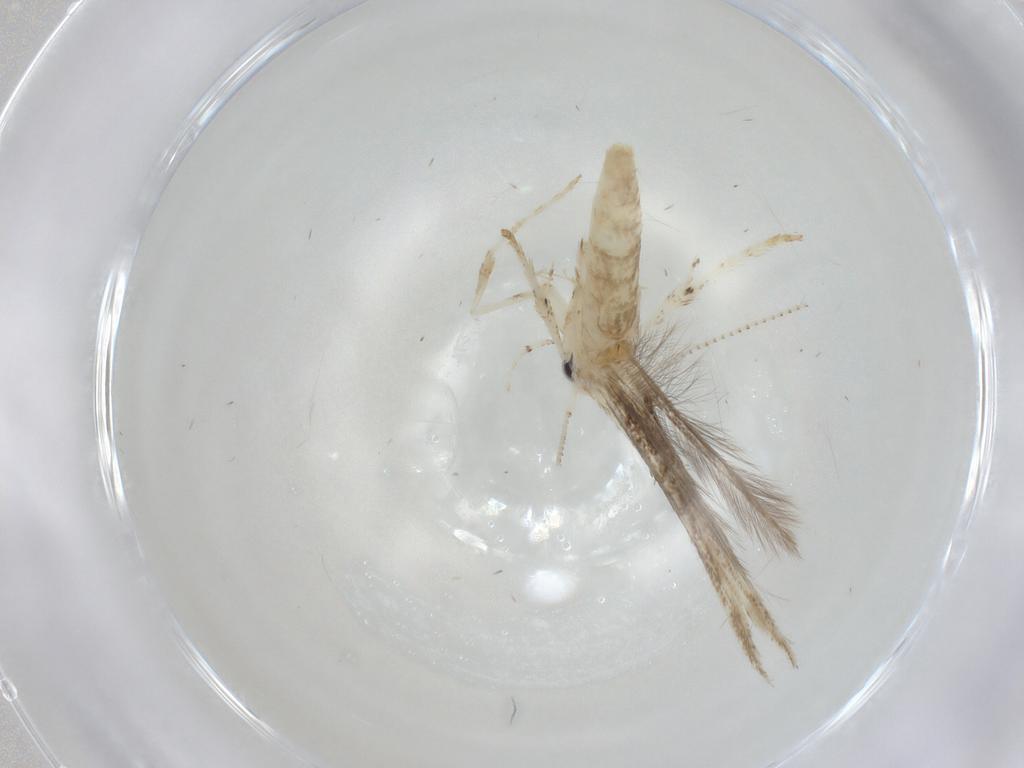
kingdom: Animalia
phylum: Arthropoda
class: Insecta
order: Lepidoptera
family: Gracillariidae
